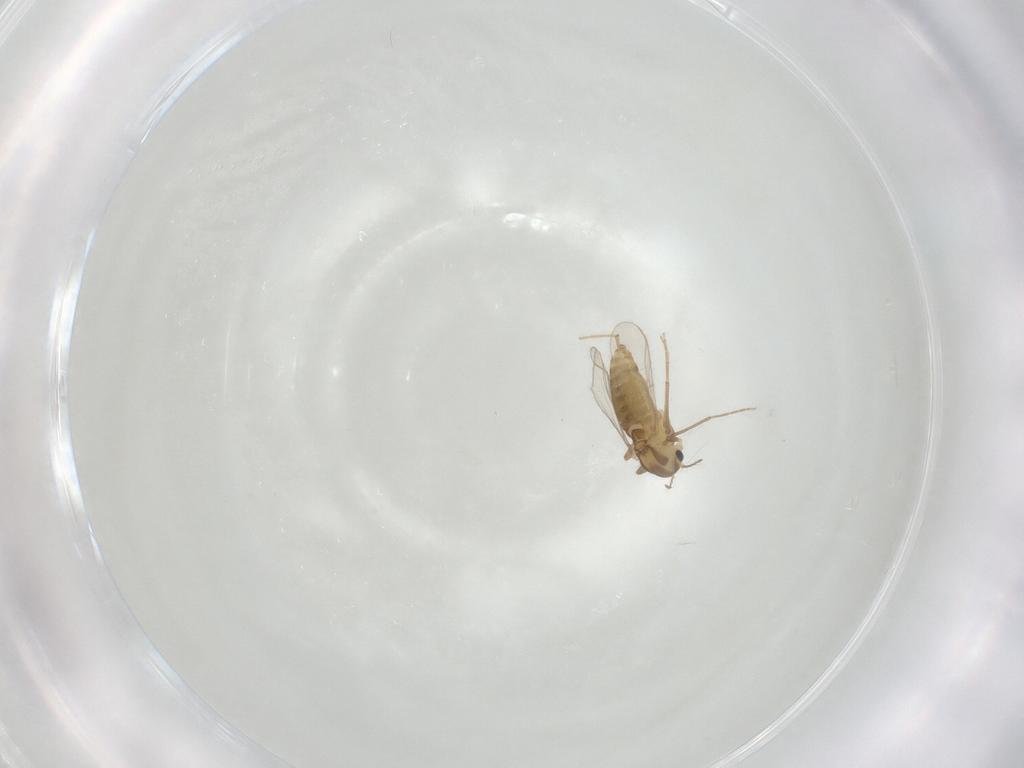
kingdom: Animalia
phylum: Arthropoda
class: Insecta
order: Diptera
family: Chironomidae
